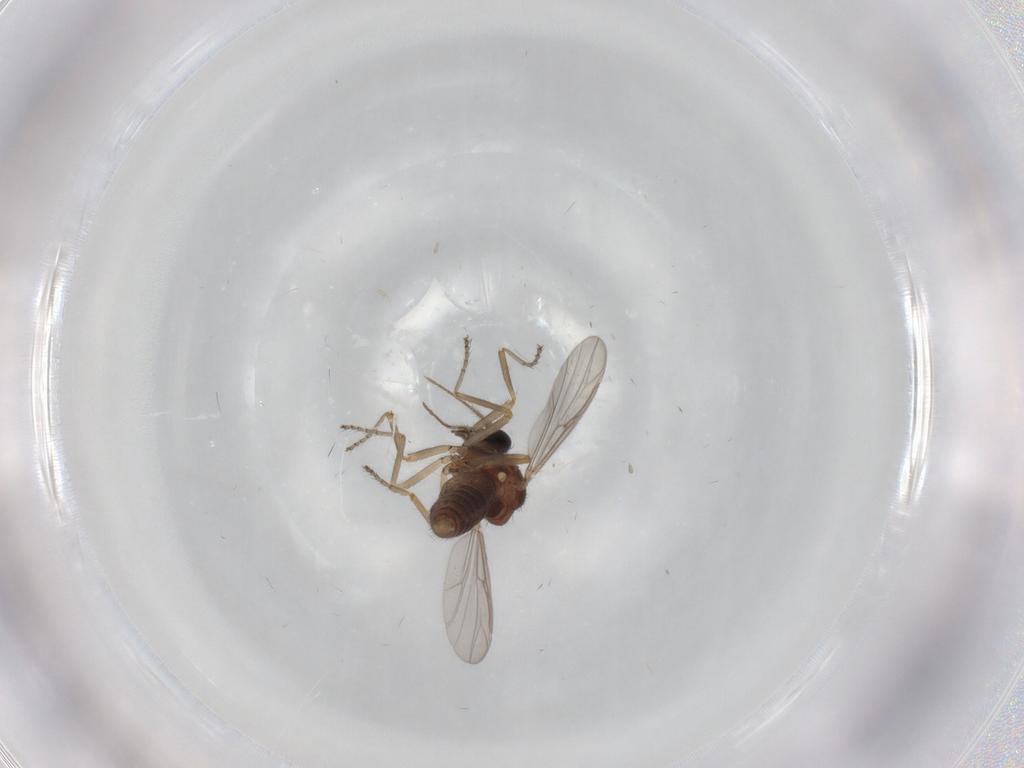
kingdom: Animalia
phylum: Arthropoda
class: Insecta
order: Diptera
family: Ceratopogonidae
